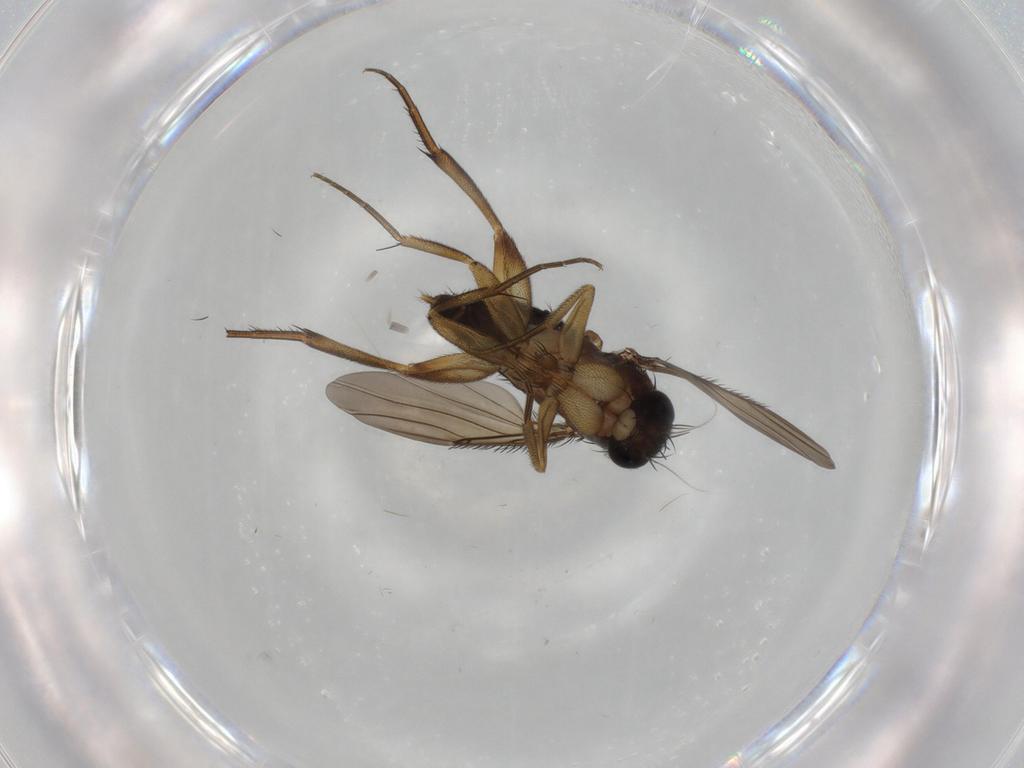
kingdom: Animalia
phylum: Arthropoda
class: Insecta
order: Diptera
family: Phoridae
